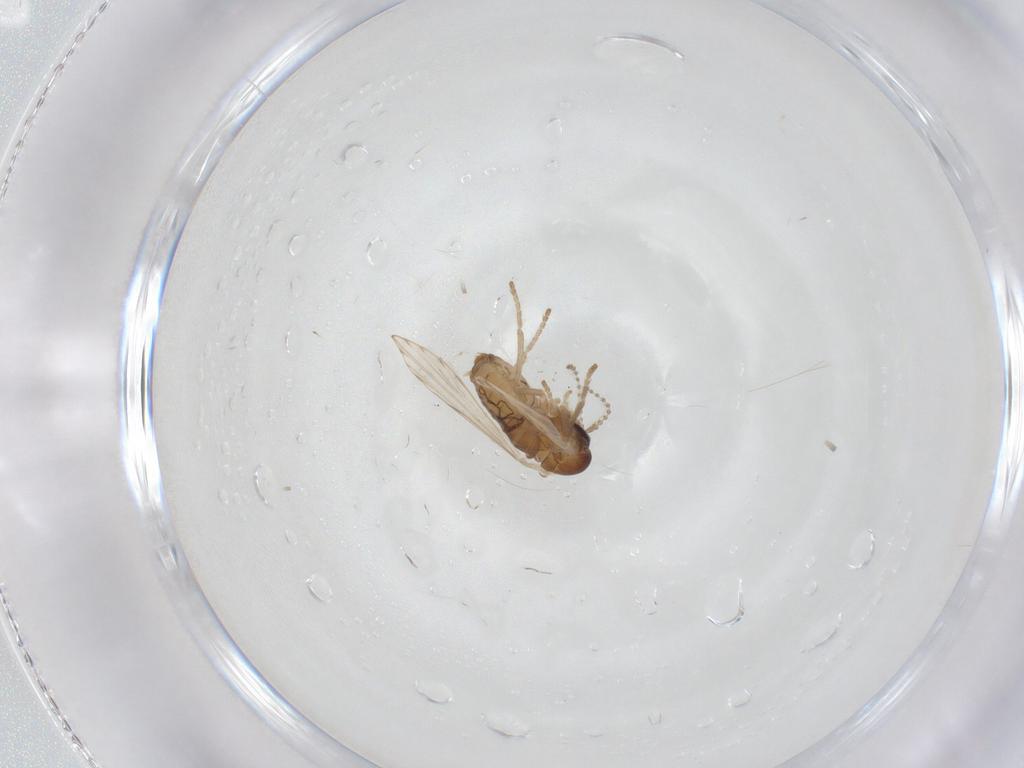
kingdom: Animalia
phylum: Arthropoda
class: Insecta
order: Diptera
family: Psychodidae
